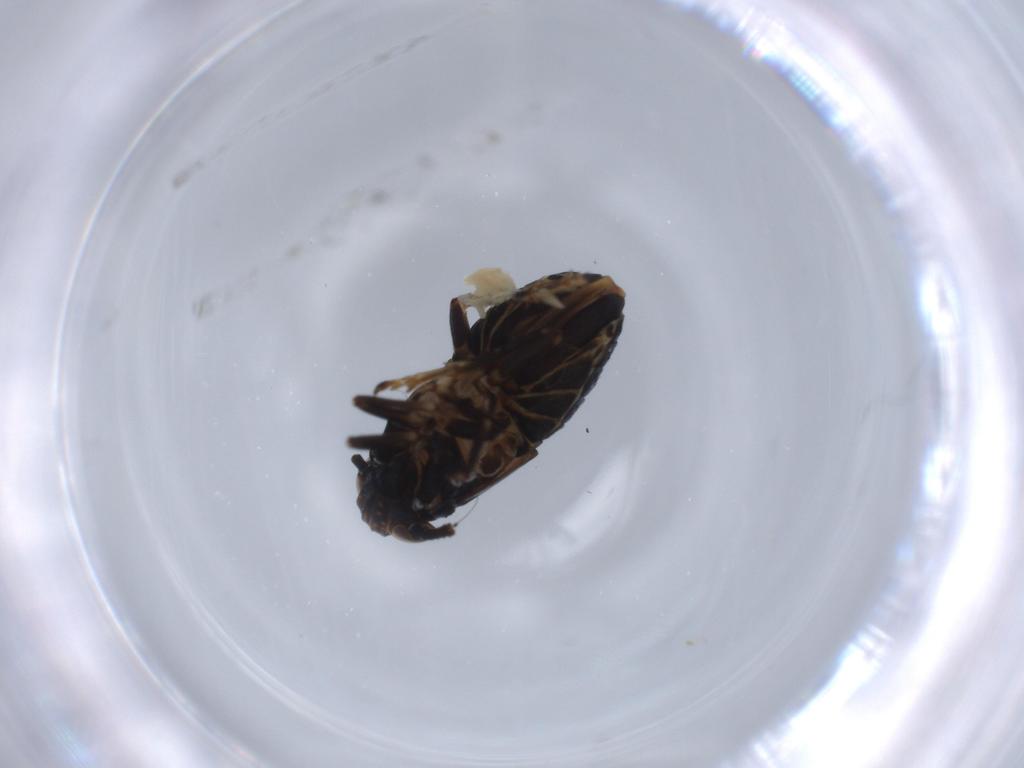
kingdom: Animalia
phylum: Arthropoda
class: Insecta
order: Hemiptera
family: Delphacidae
